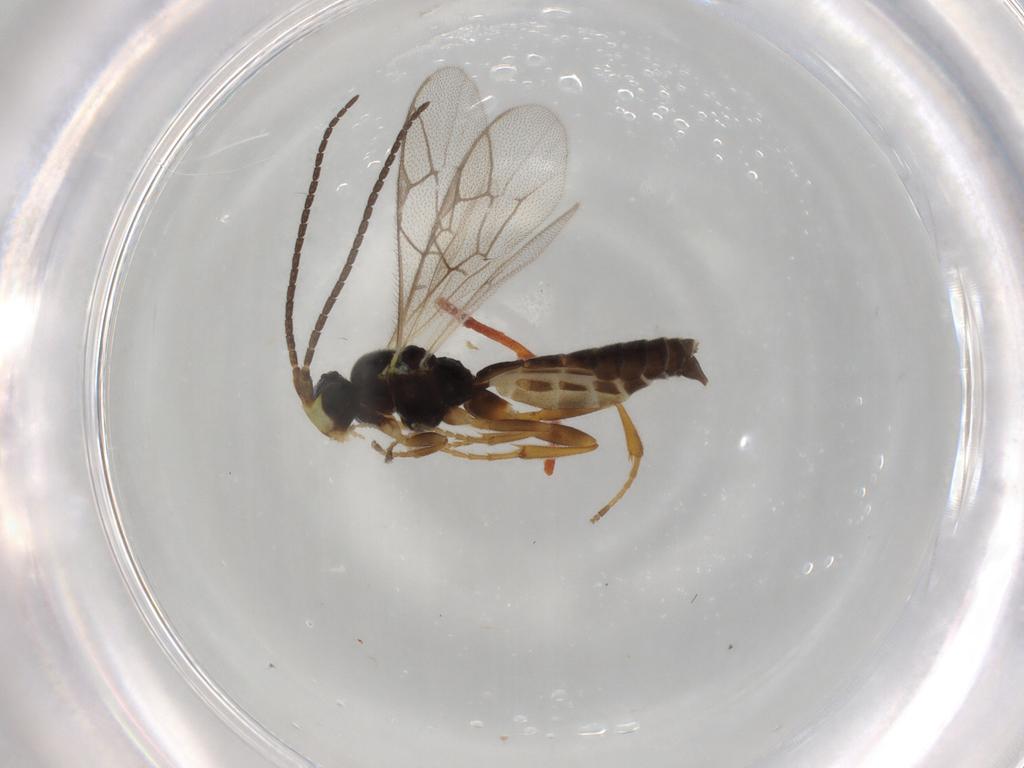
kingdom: Animalia
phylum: Arthropoda
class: Insecta
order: Hymenoptera
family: Ichneumonidae
